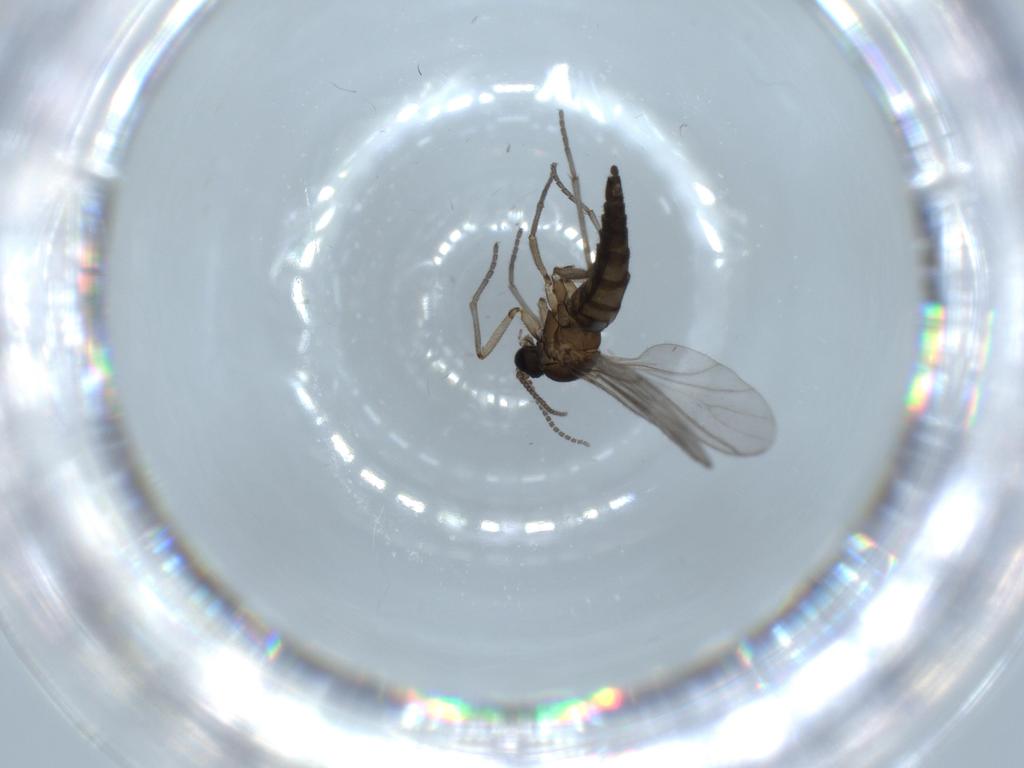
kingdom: Animalia
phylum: Arthropoda
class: Insecta
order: Diptera
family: Sciaridae
